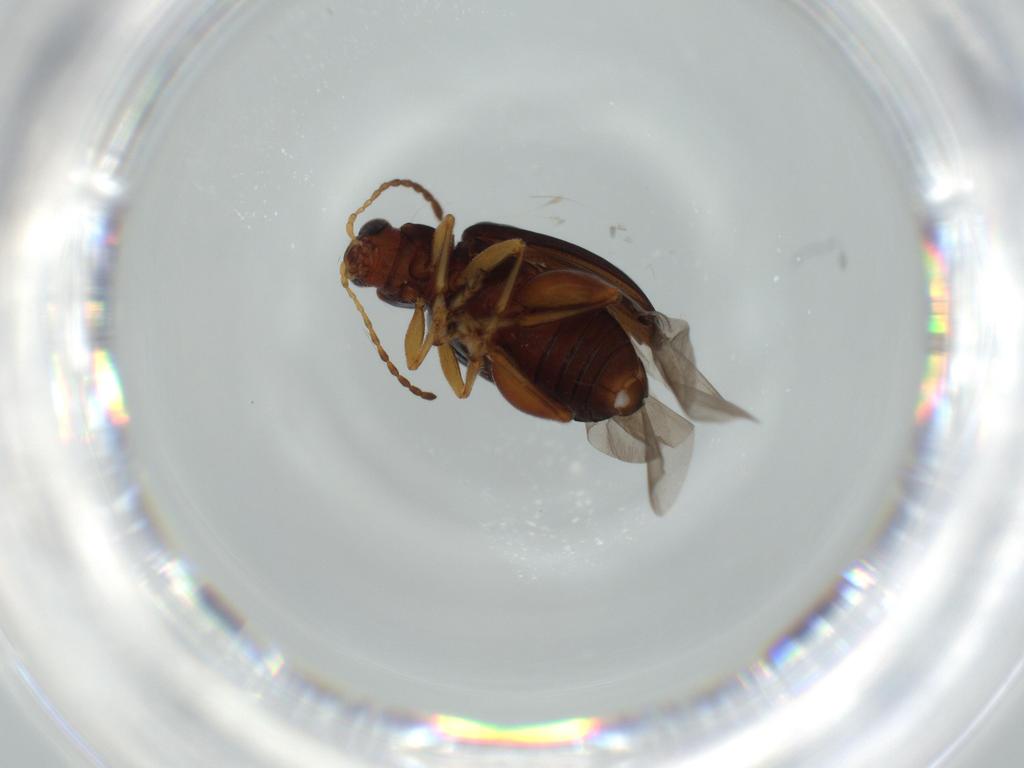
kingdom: Animalia
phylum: Arthropoda
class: Insecta
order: Coleoptera
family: Chrysomelidae
